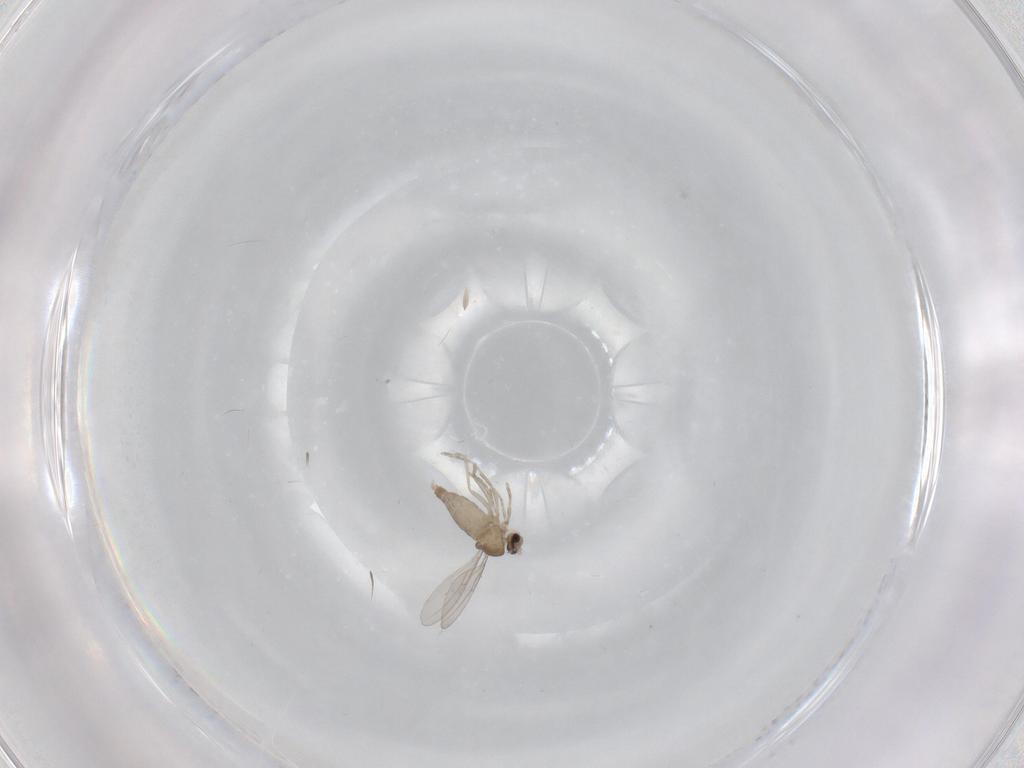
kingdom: Animalia
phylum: Arthropoda
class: Insecta
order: Diptera
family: Cecidomyiidae
